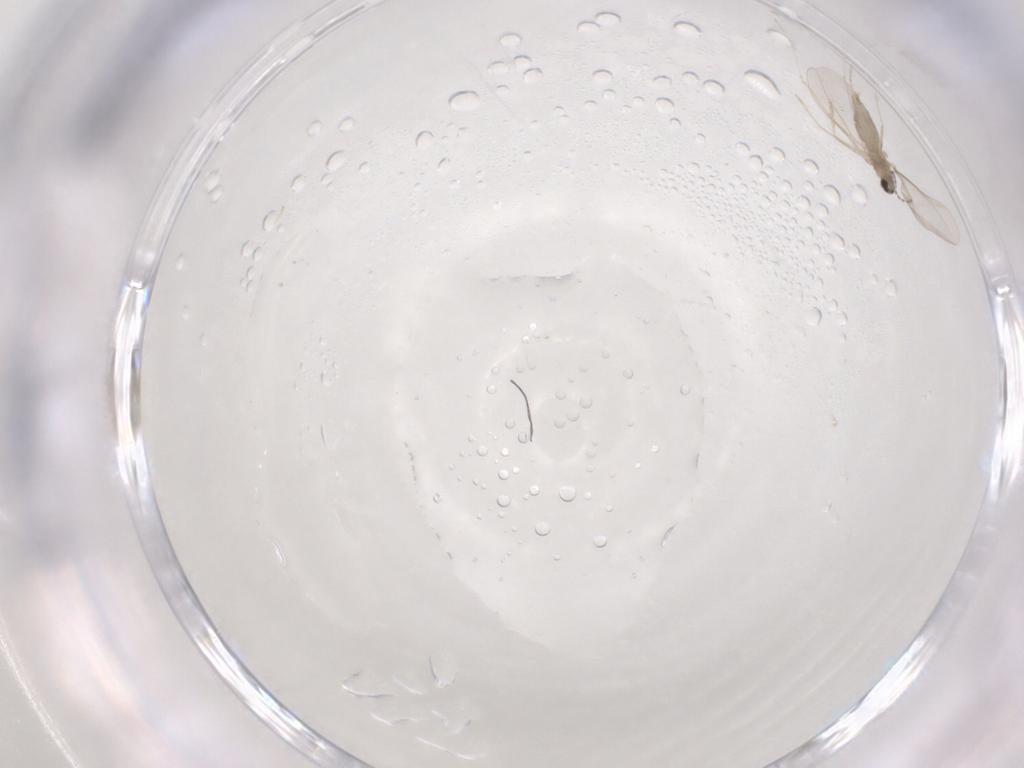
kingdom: Animalia
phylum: Arthropoda
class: Insecta
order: Diptera
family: Cecidomyiidae
